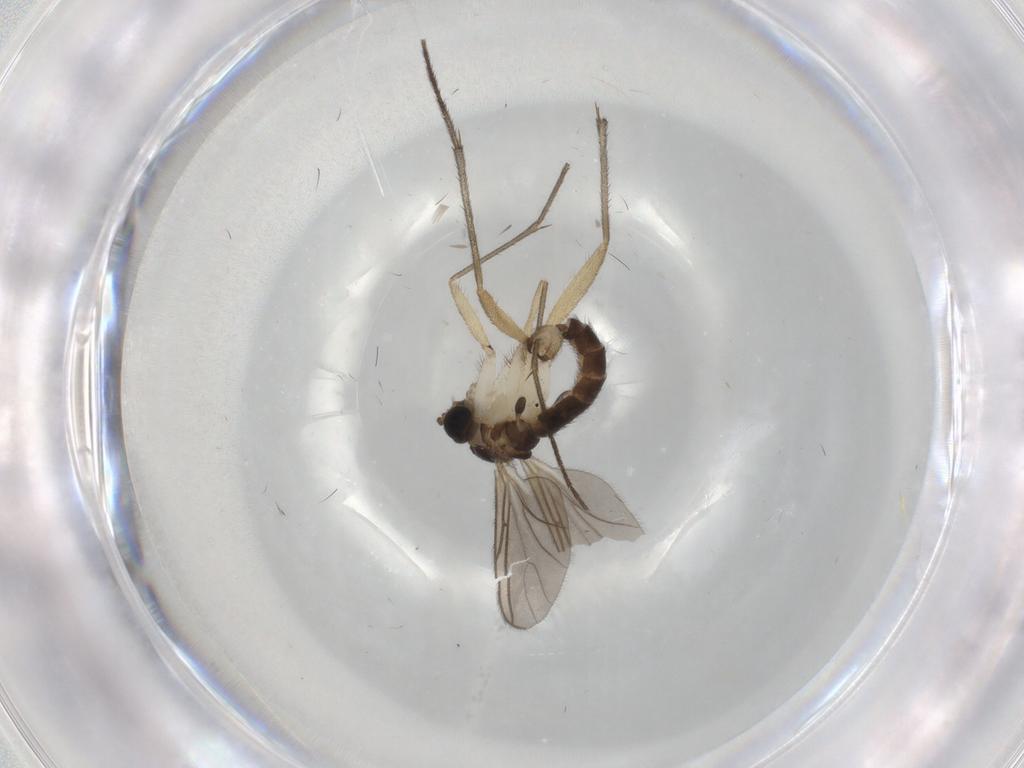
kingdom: Animalia
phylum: Arthropoda
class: Insecta
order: Diptera
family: Sciaridae
